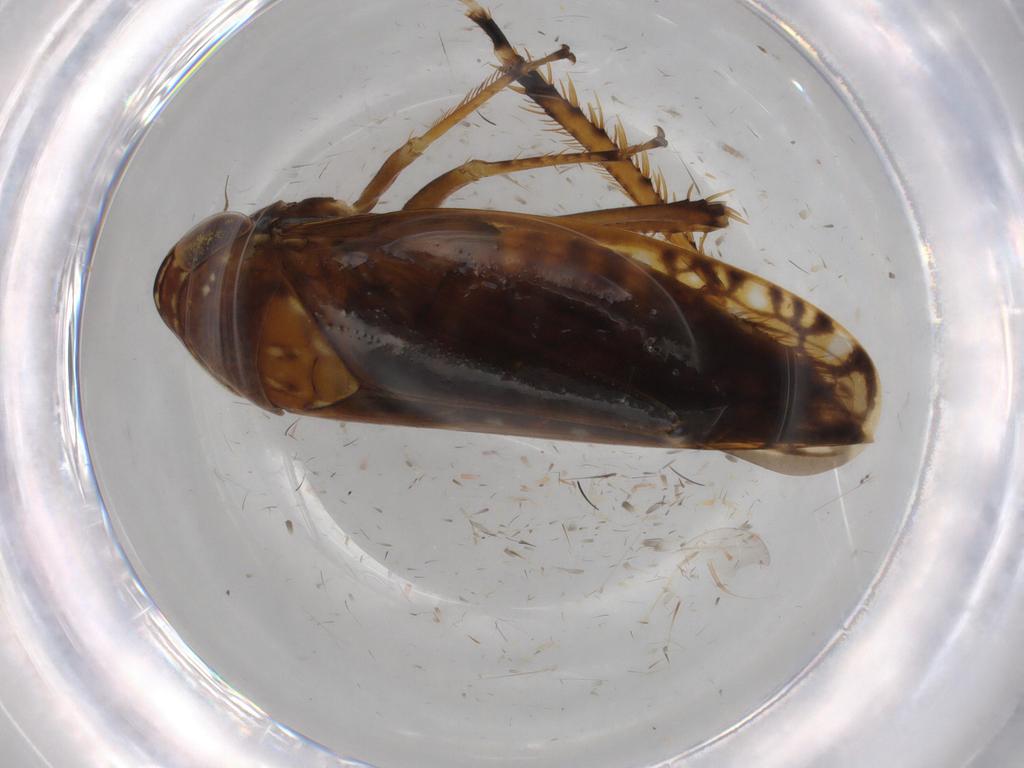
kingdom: Animalia
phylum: Arthropoda
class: Insecta
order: Hemiptera
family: Cicadellidae
